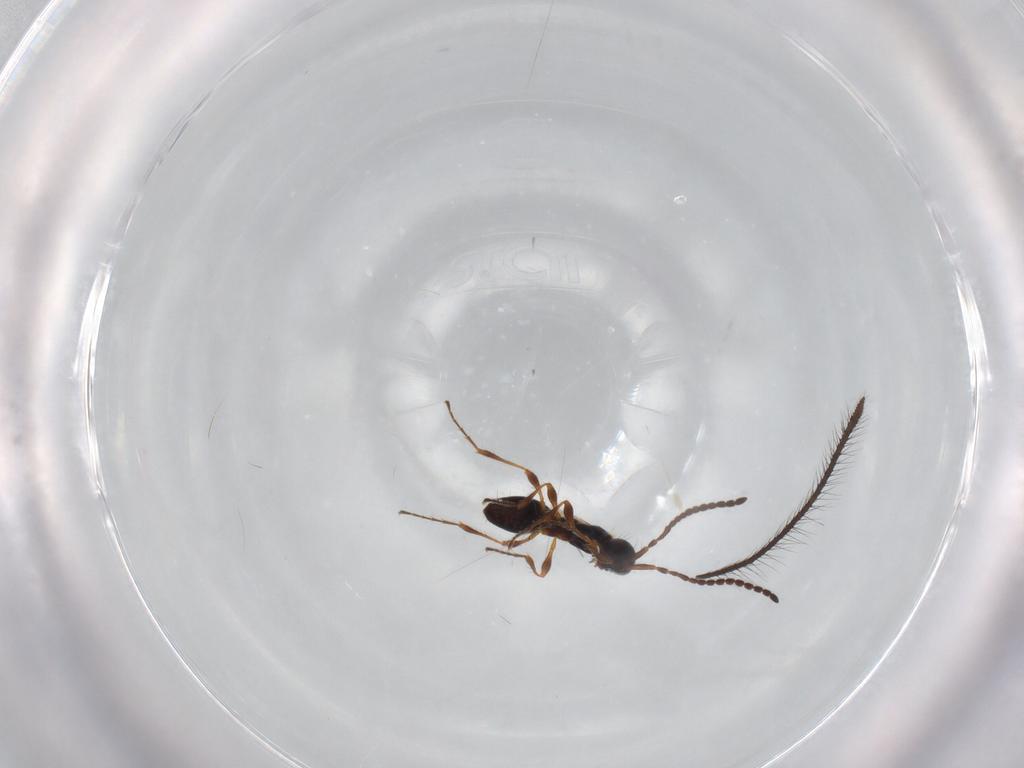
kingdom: Animalia
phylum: Arthropoda
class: Insecta
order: Hymenoptera
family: Diapriidae
